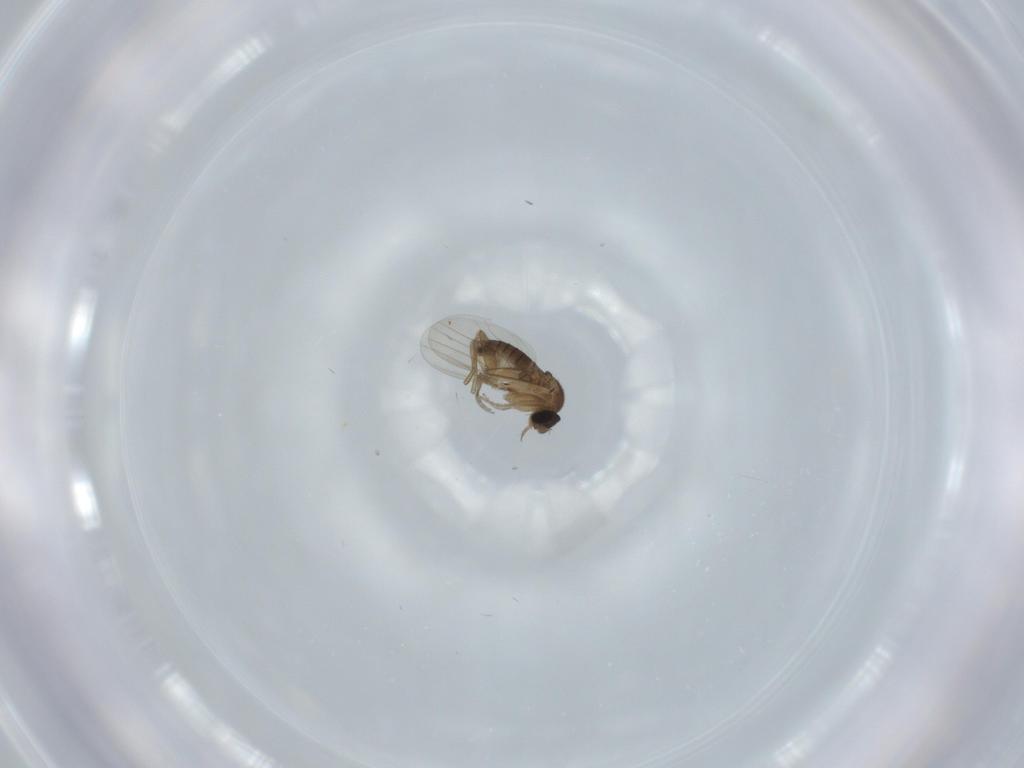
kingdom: Animalia
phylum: Arthropoda
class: Insecta
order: Diptera
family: Phoridae
